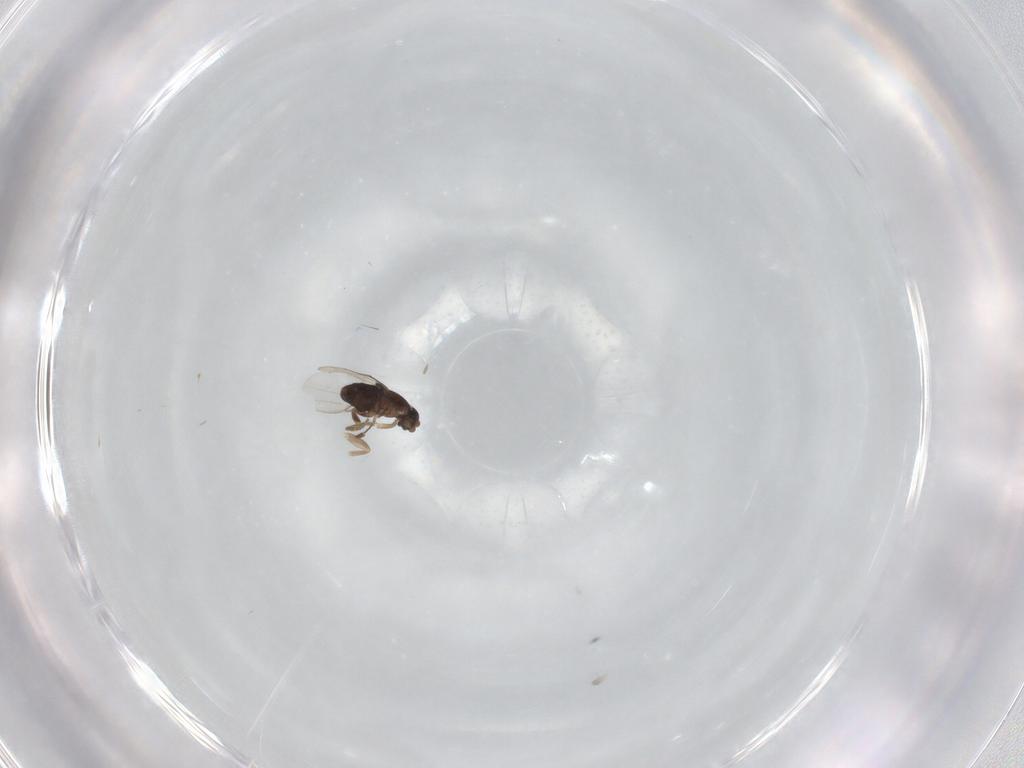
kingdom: Animalia
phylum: Arthropoda
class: Insecta
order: Diptera
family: Phoridae
